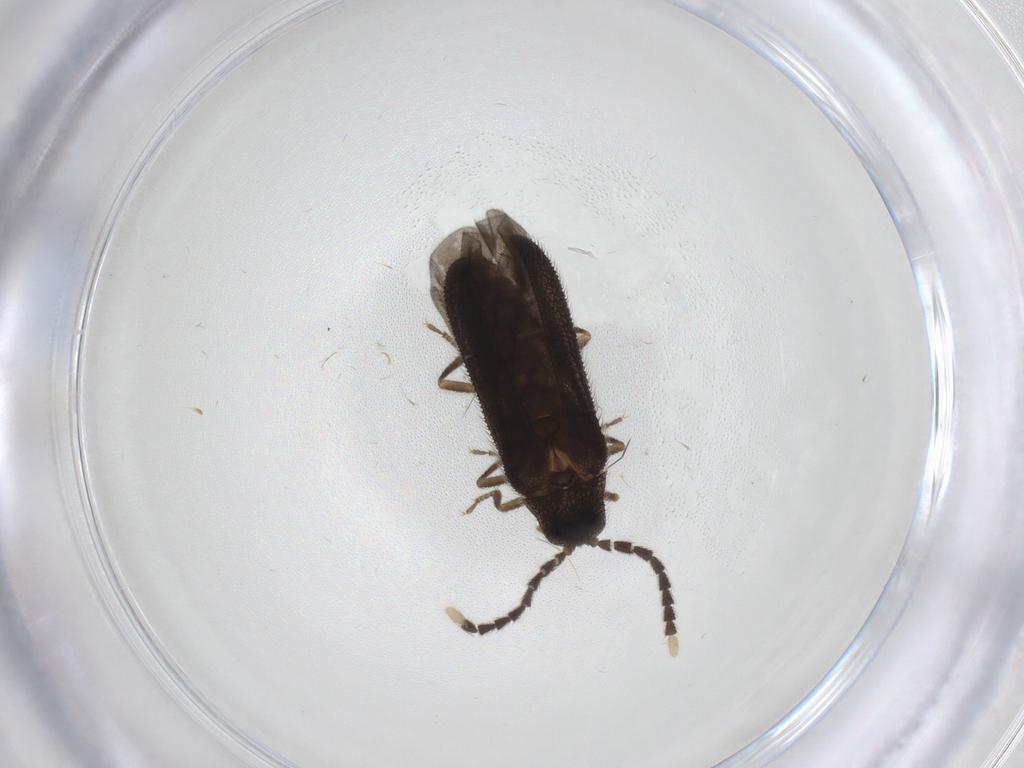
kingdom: Animalia
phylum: Arthropoda
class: Insecta
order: Coleoptera
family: Lycidae
